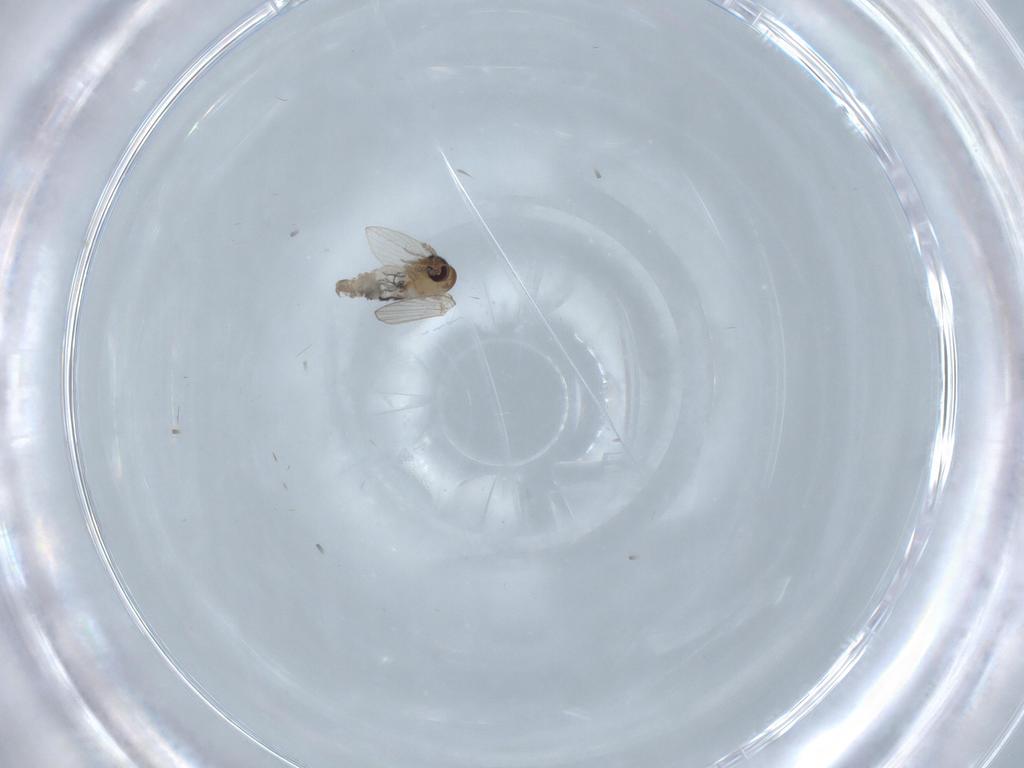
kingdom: Animalia
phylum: Arthropoda
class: Insecta
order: Diptera
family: Psychodidae
